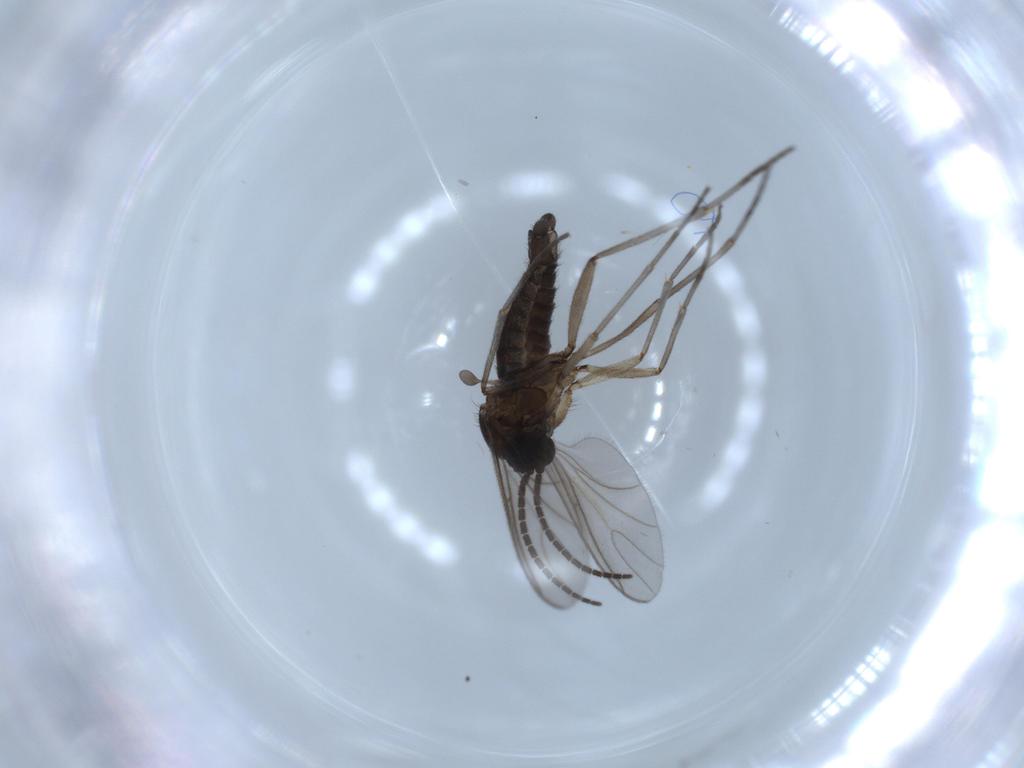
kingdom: Animalia
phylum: Arthropoda
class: Insecta
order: Diptera
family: Sciaridae
